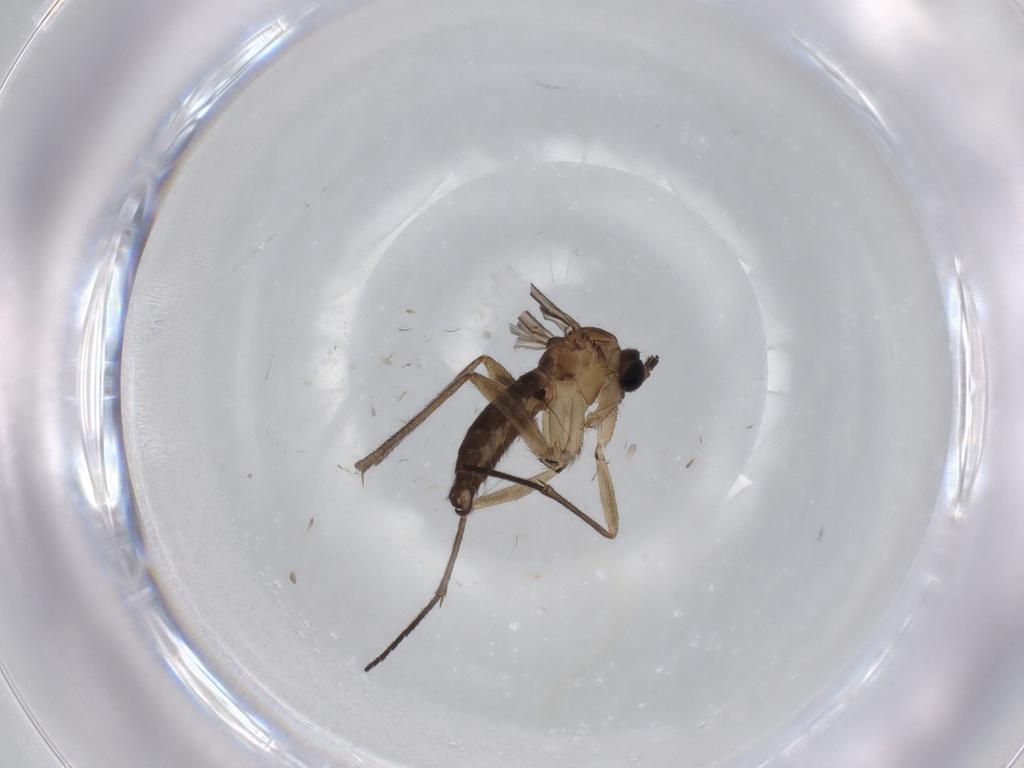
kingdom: Animalia
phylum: Arthropoda
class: Insecta
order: Diptera
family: Dolichopodidae
